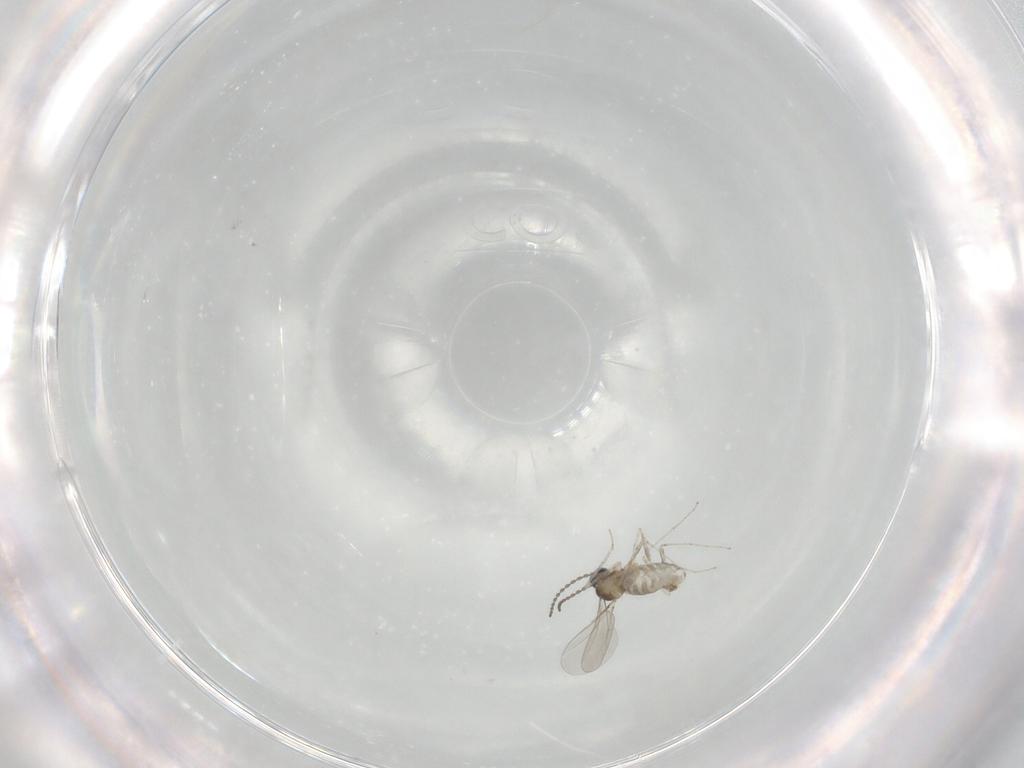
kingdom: Animalia
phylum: Arthropoda
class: Insecta
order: Diptera
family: Cecidomyiidae
